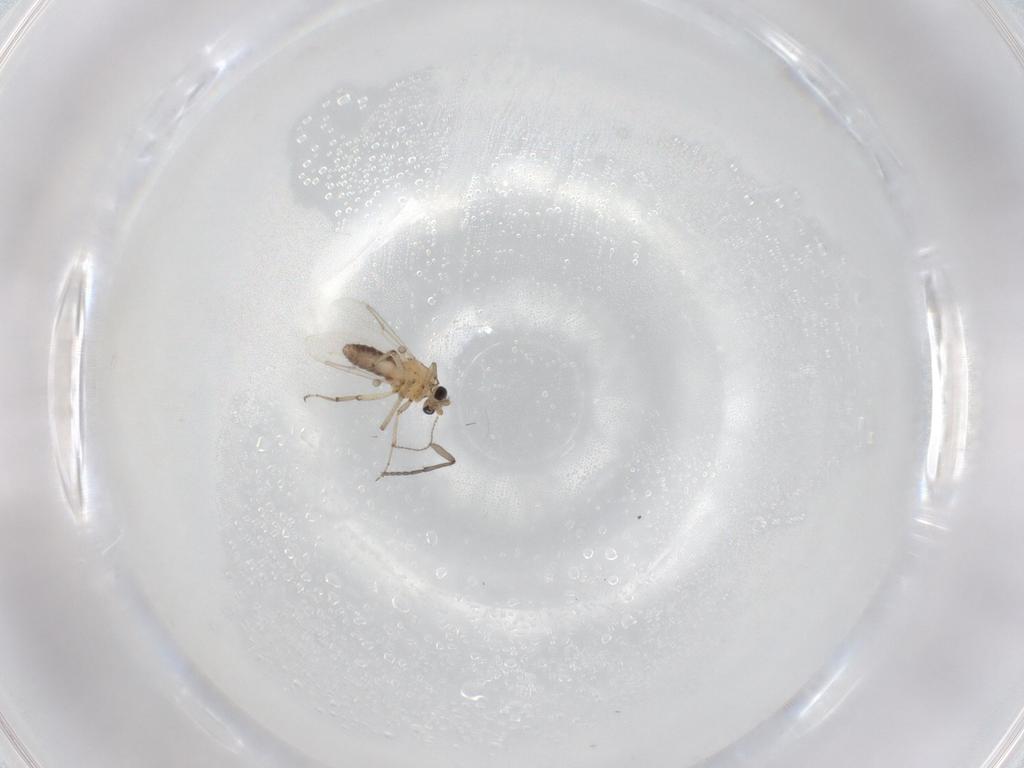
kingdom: Animalia
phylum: Arthropoda
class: Insecta
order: Diptera
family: Ceratopogonidae
